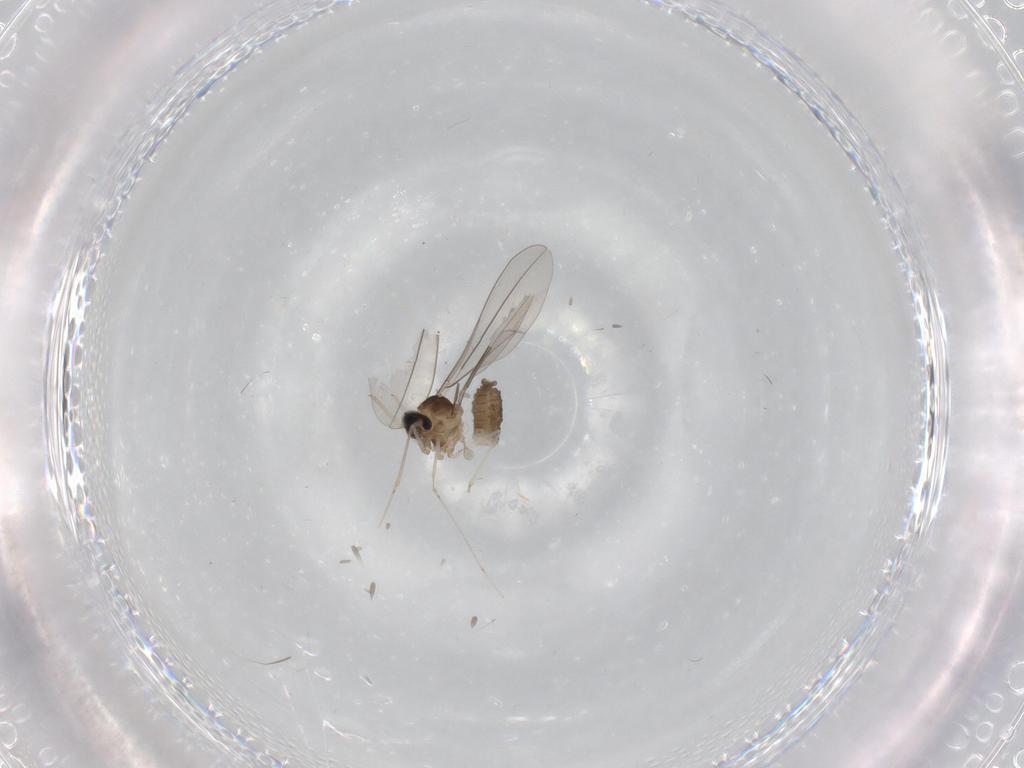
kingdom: Animalia
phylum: Arthropoda
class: Insecta
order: Diptera
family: Cecidomyiidae
